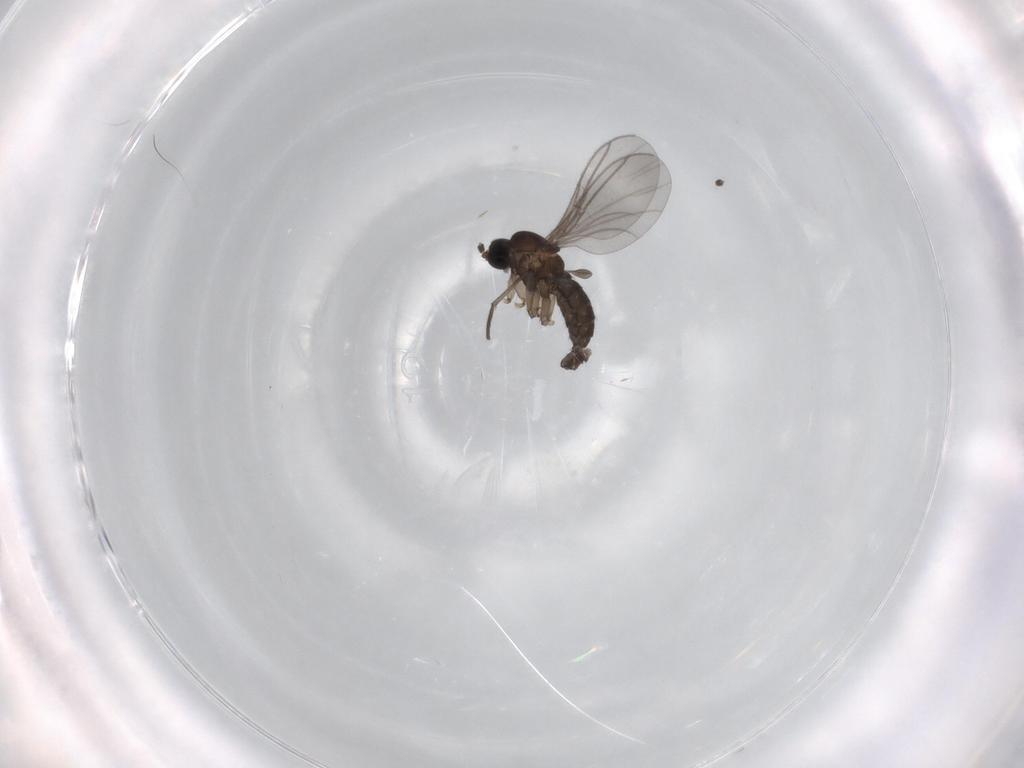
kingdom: Animalia
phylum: Arthropoda
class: Insecta
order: Diptera
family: Sciaridae
